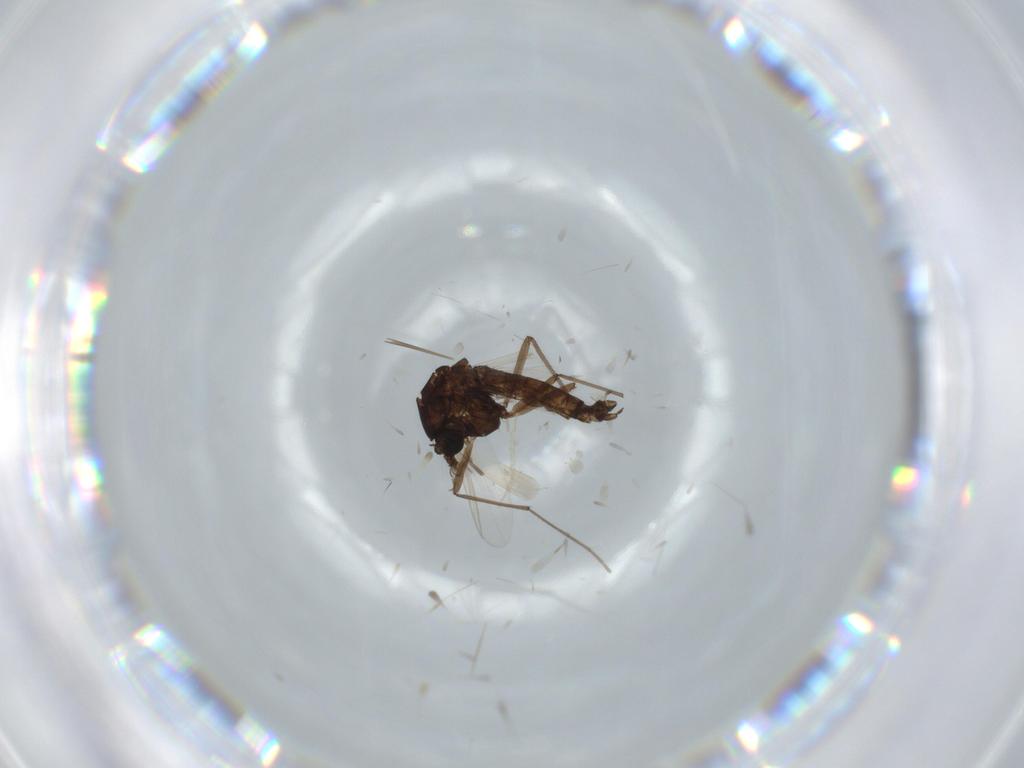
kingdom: Animalia
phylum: Arthropoda
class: Insecta
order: Diptera
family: Chironomidae
